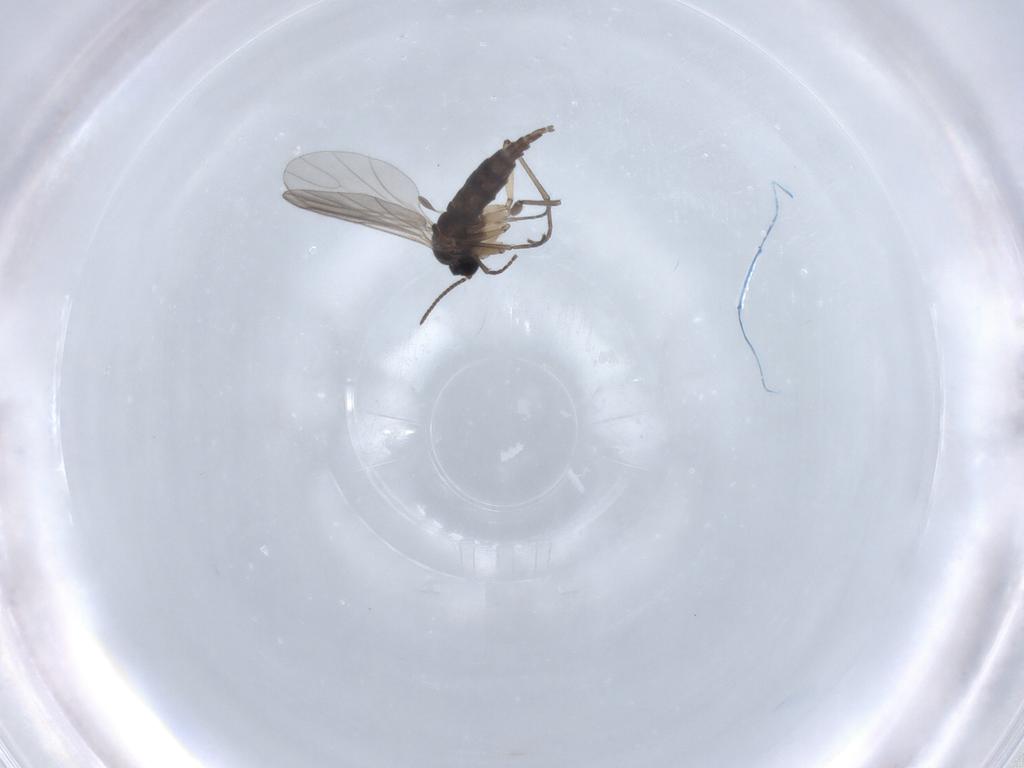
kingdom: Animalia
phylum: Arthropoda
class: Insecta
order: Diptera
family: Sciaridae
